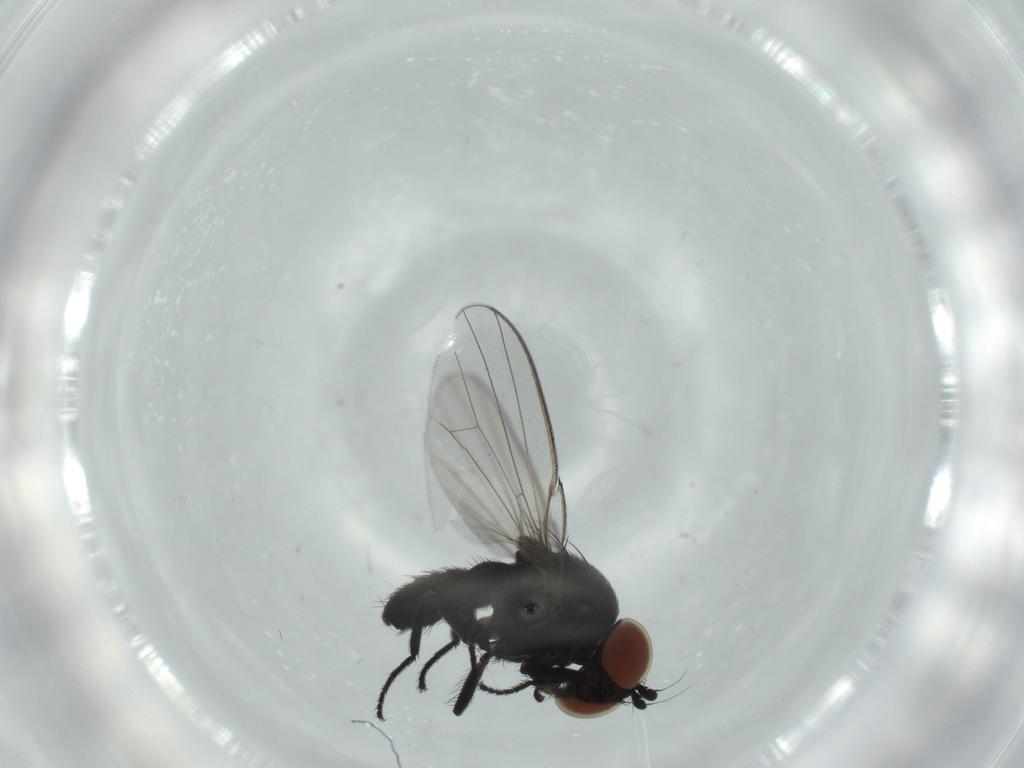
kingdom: Animalia
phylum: Arthropoda
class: Insecta
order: Diptera
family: Milichiidae
